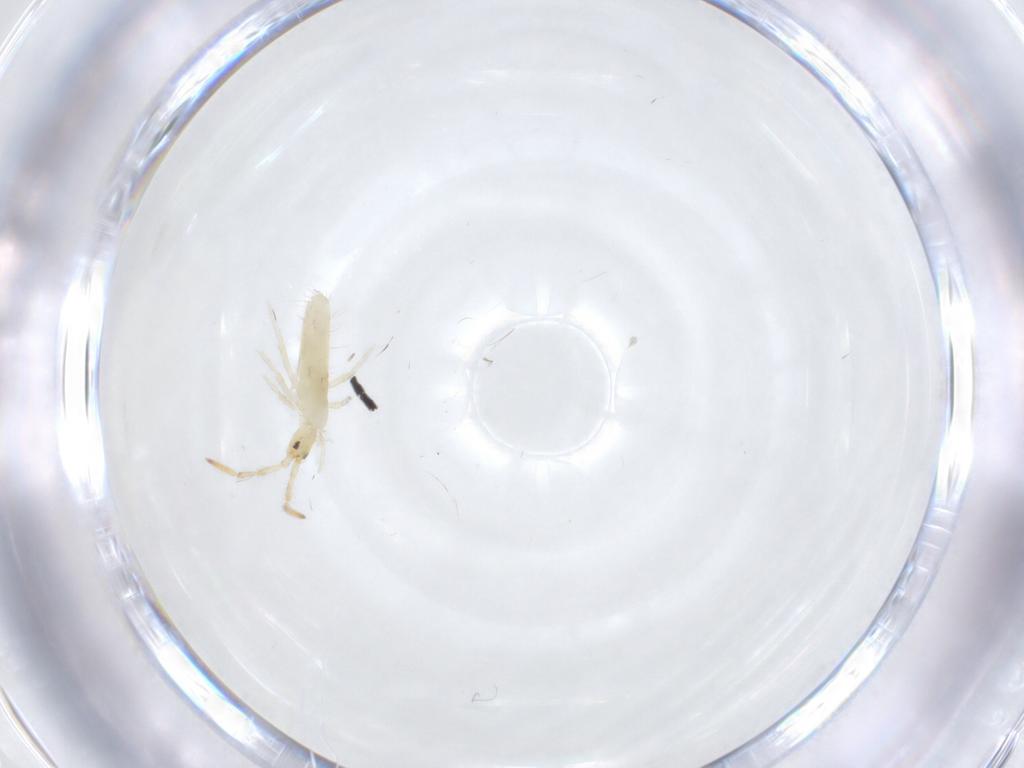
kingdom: Animalia
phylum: Arthropoda
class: Collembola
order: Entomobryomorpha
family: Entomobryidae
